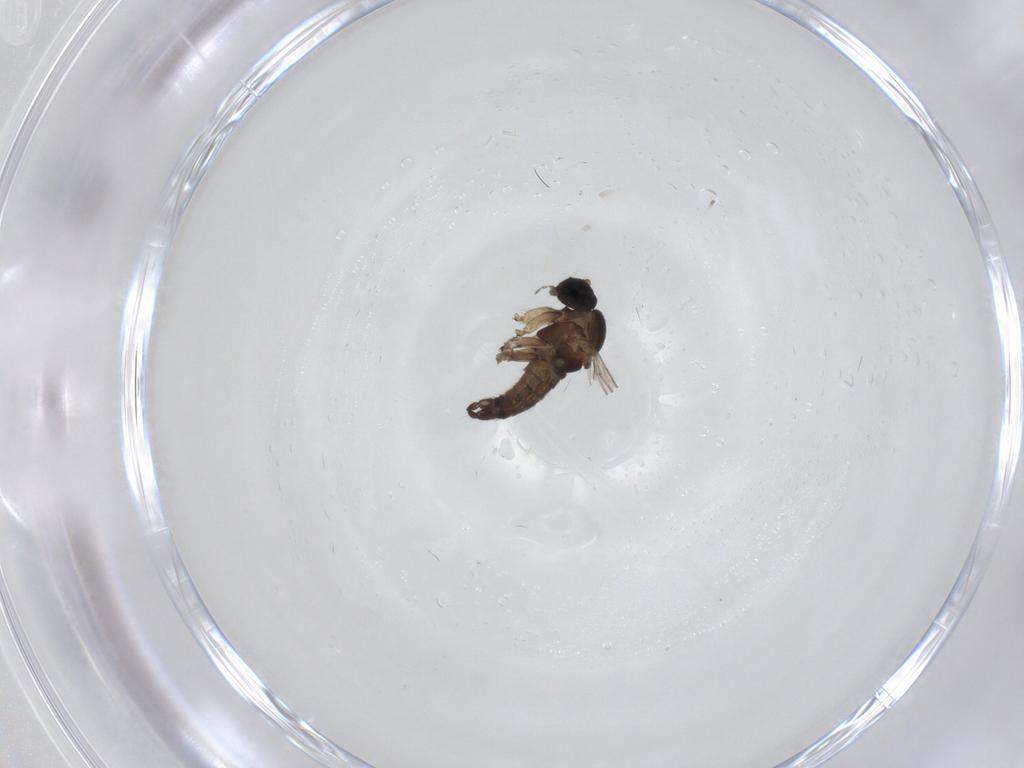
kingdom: Animalia
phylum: Arthropoda
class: Insecta
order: Diptera
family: Sciaridae
